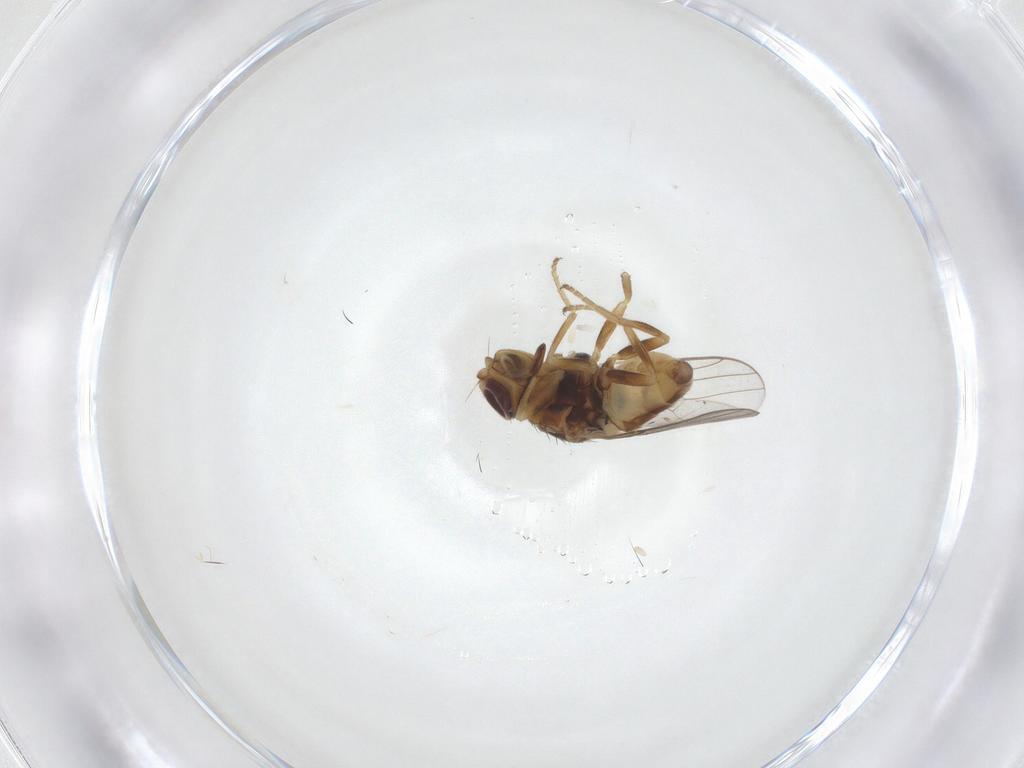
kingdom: Animalia
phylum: Arthropoda
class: Insecta
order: Diptera
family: Chloropidae
